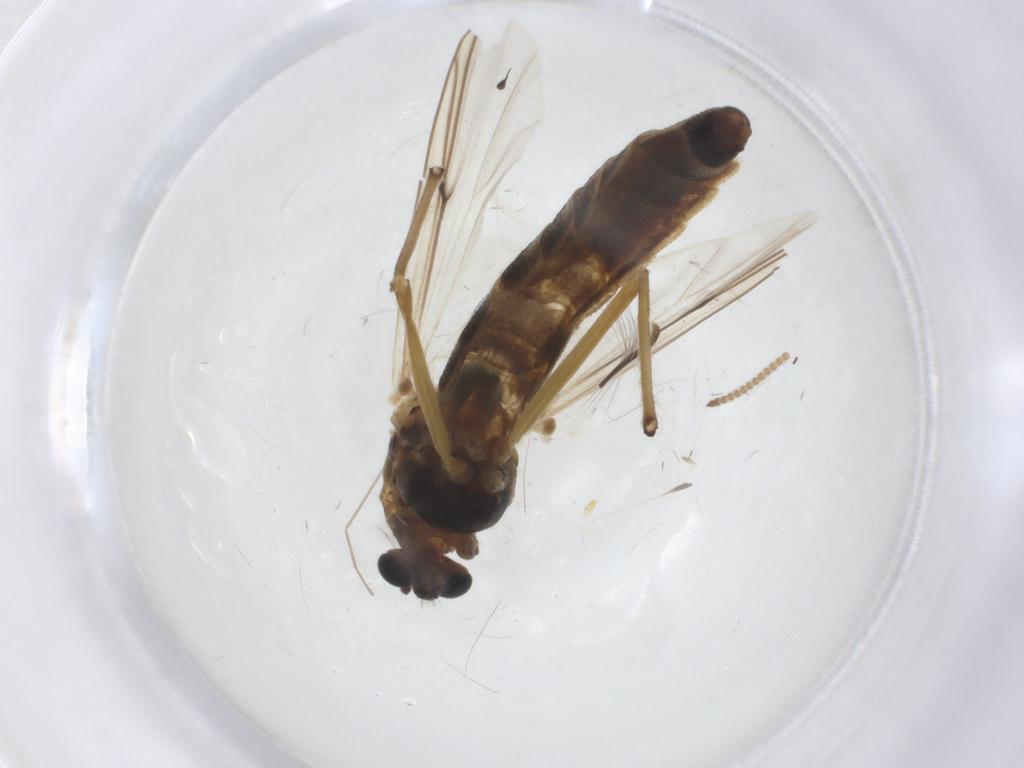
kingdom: Animalia
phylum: Arthropoda
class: Insecta
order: Diptera
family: Chironomidae
